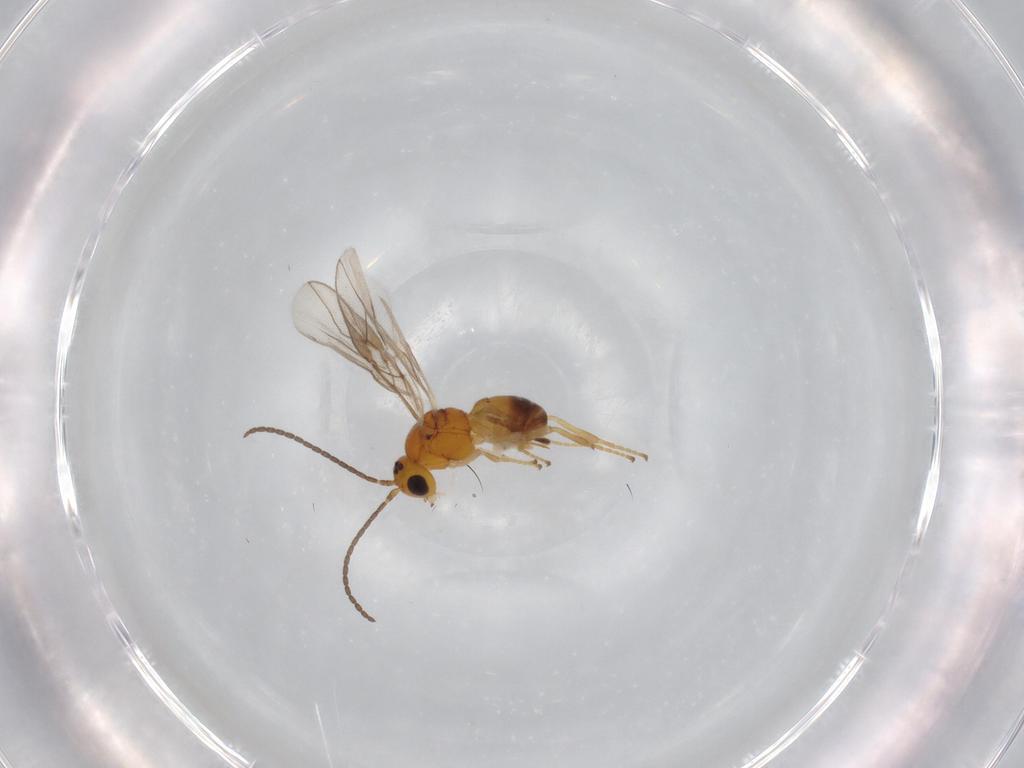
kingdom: Animalia
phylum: Arthropoda
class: Insecta
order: Hymenoptera
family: Braconidae
